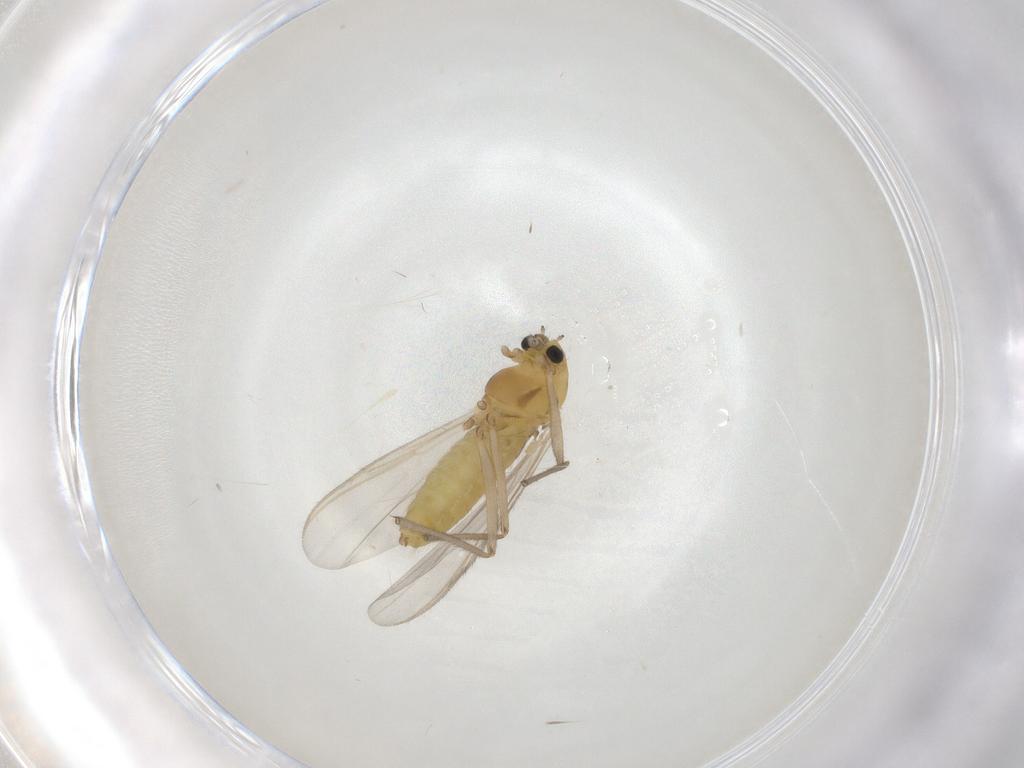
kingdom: Animalia
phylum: Arthropoda
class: Insecta
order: Diptera
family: Chironomidae
